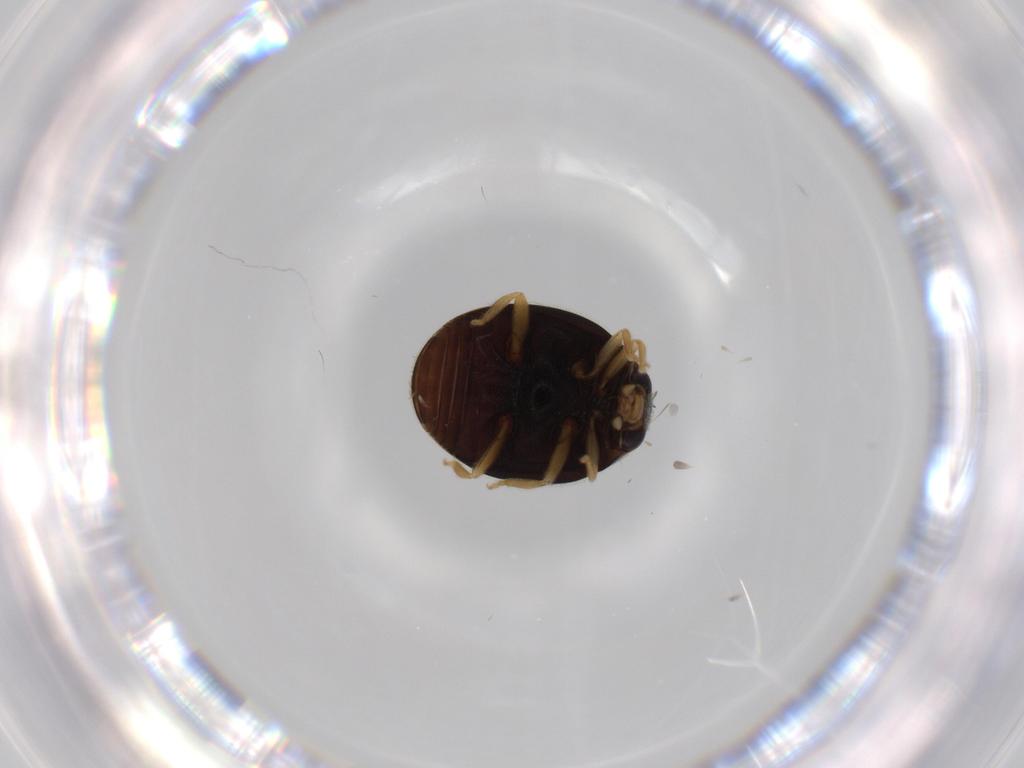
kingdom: Animalia
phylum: Arthropoda
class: Insecta
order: Coleoptera
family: Coccinellidae
